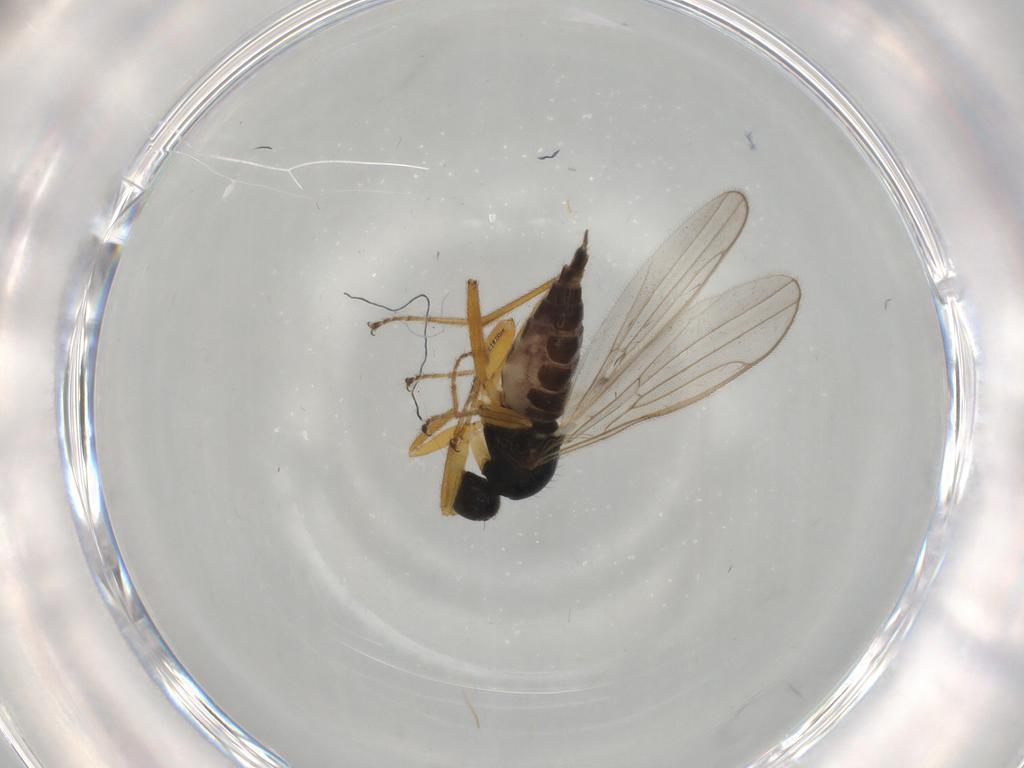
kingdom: Animalia
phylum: Arthropoda
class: Insecta
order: Diptera
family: Hybotidae
